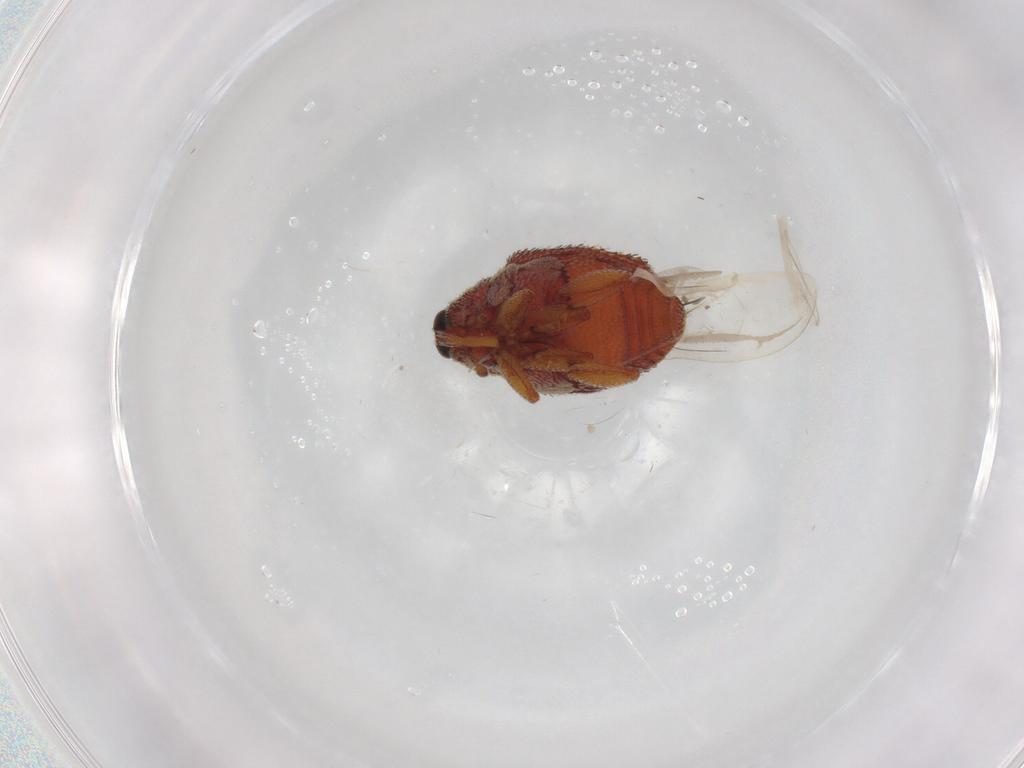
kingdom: Animalia
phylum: Arthropoda
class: Insecta
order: Coleoptera
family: Curculionidae
